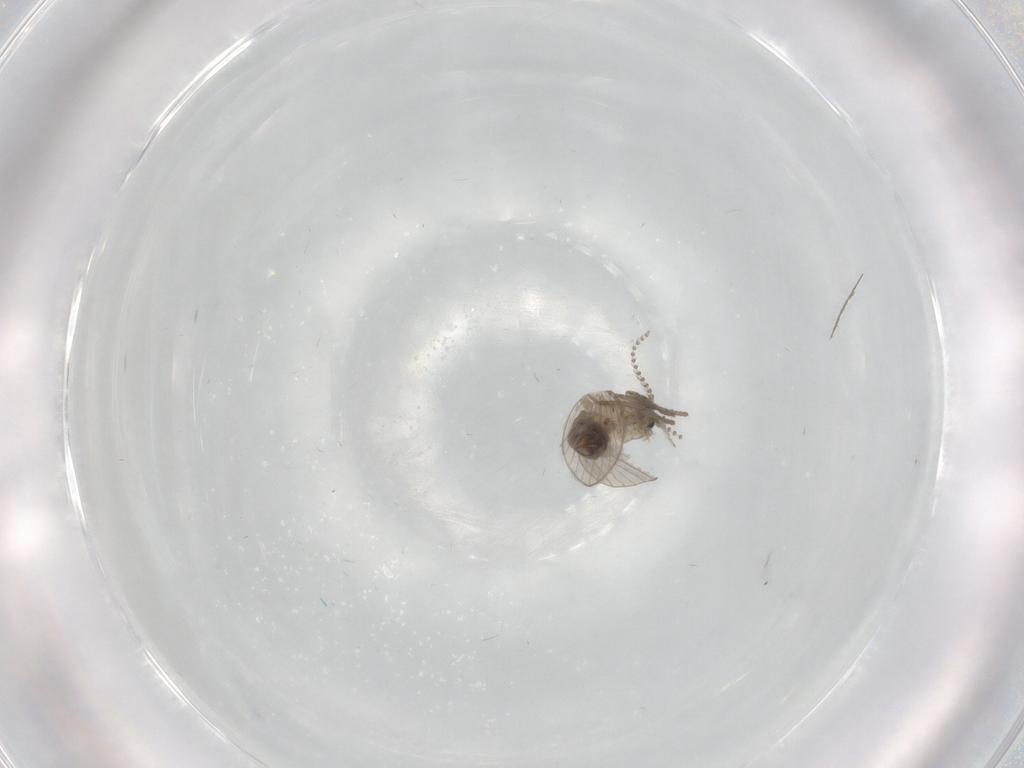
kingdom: Animalia
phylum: Arthropoda
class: Insecta
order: Diptera
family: Psychodidae
